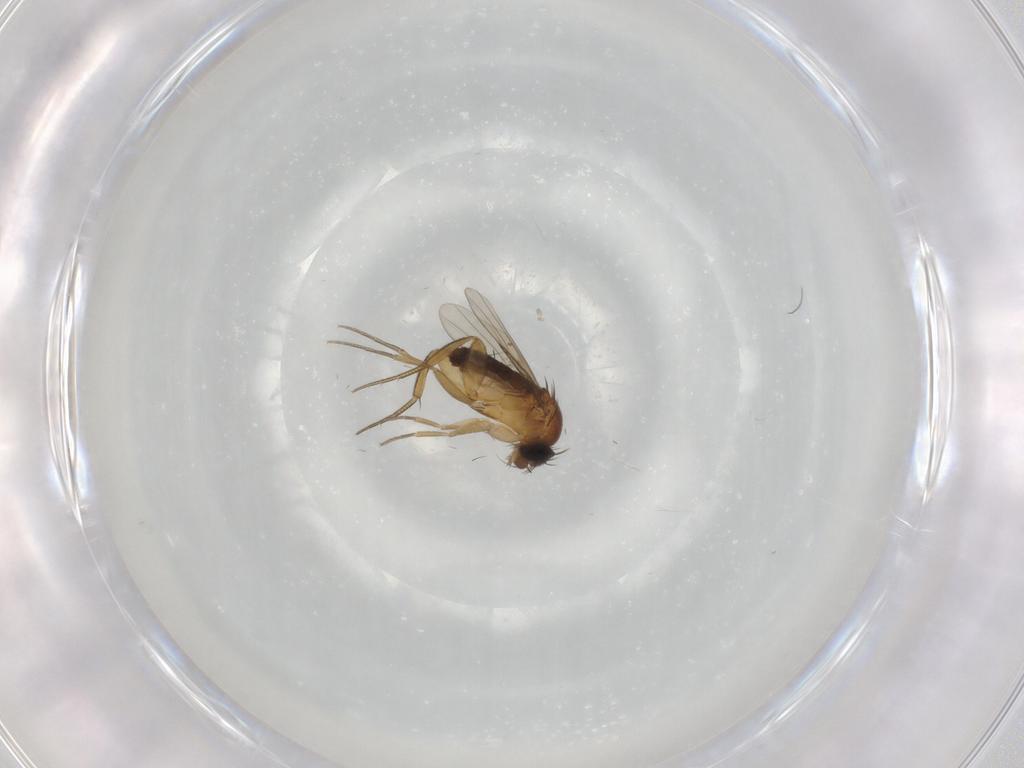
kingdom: Animalia
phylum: Arthropoda
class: Insecta
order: Diptera
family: Phoridae
